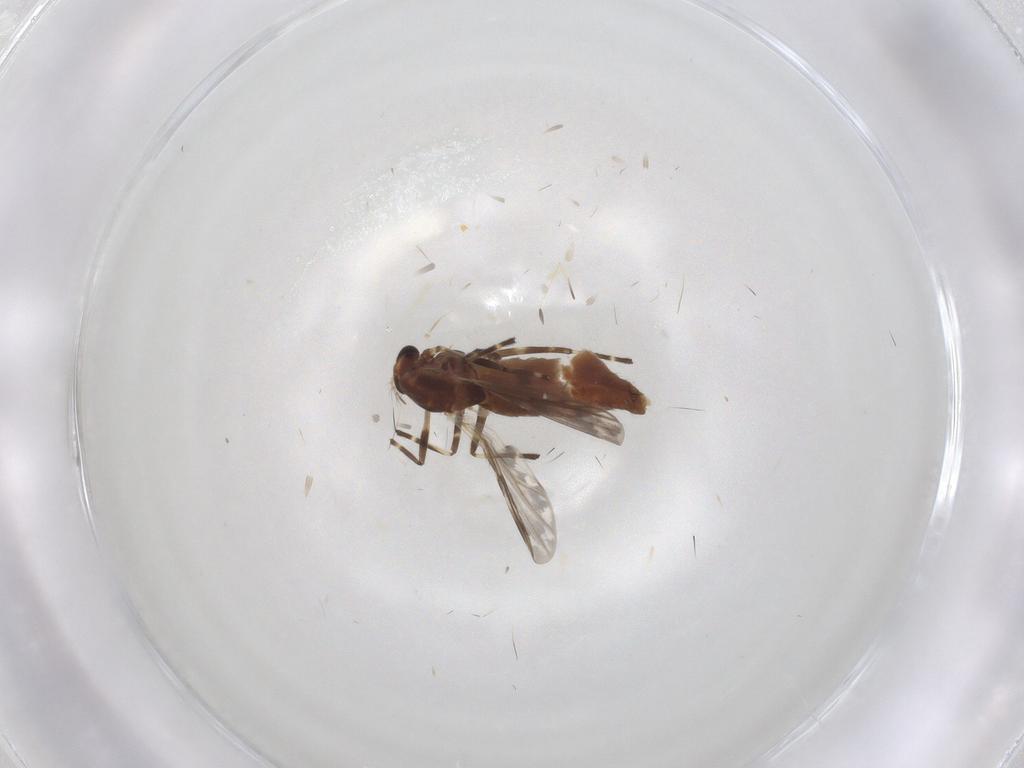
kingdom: Animalia
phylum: Arthropoda
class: Insecta
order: Diptera
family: Chironomidae
